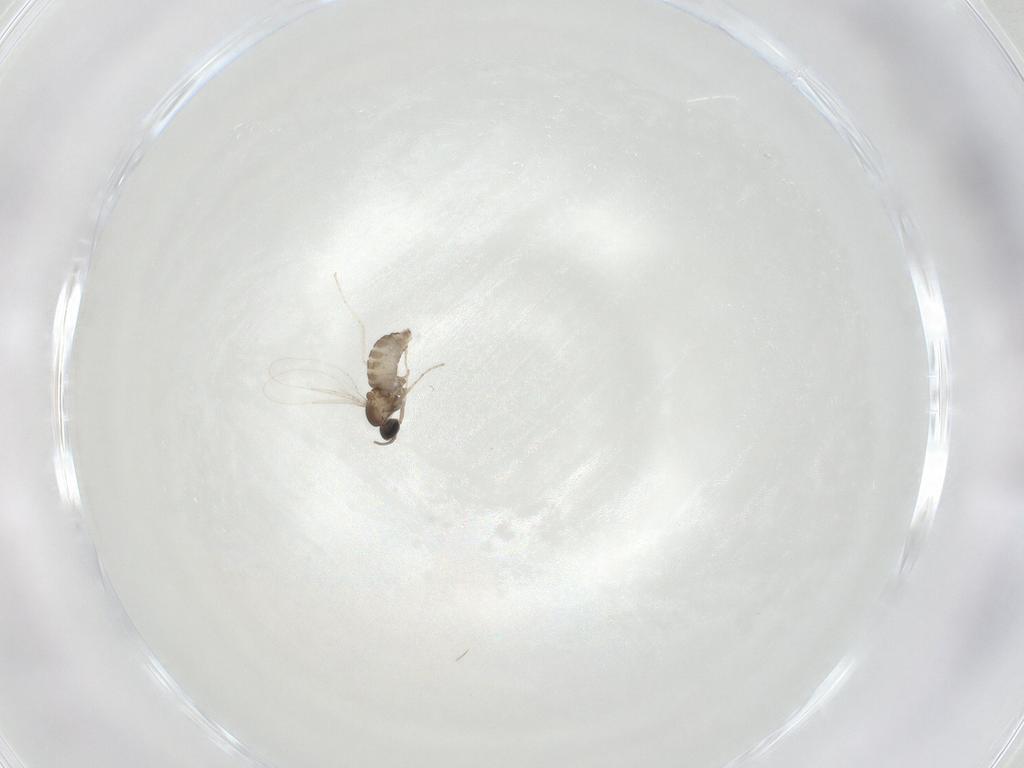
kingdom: Animalia
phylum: Arthropoda
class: Insecta
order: Diptera
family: Cecidomyiidae
